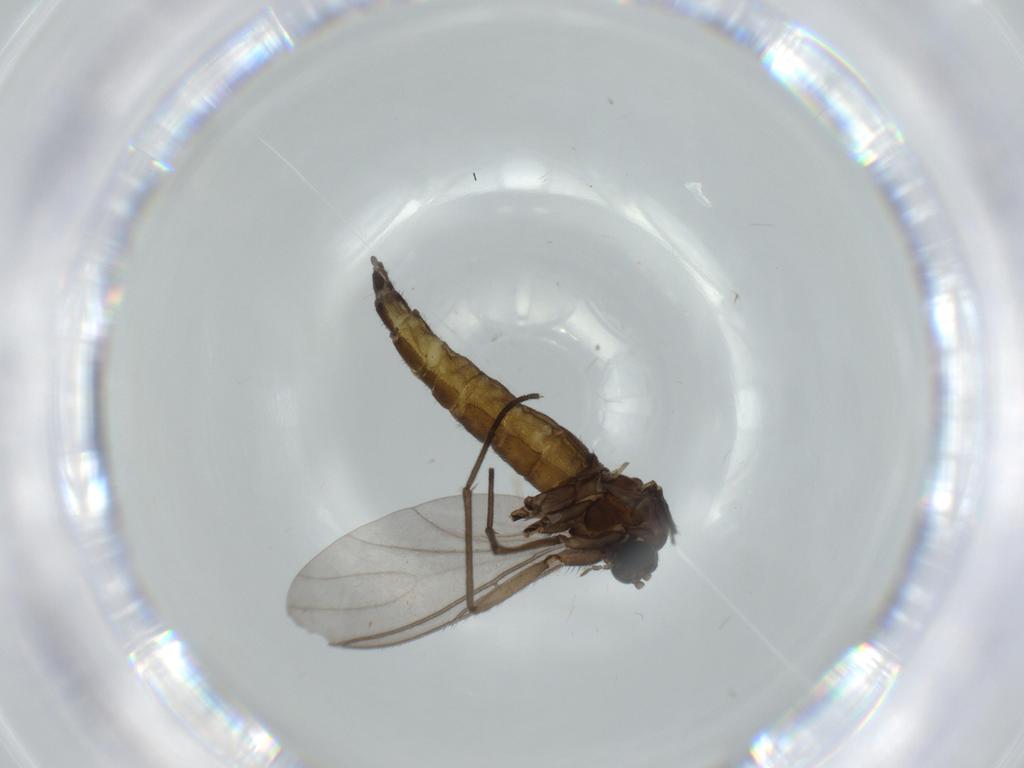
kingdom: Animalia
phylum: Arthropoda
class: Insecta
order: Diptera
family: Sciaridae
